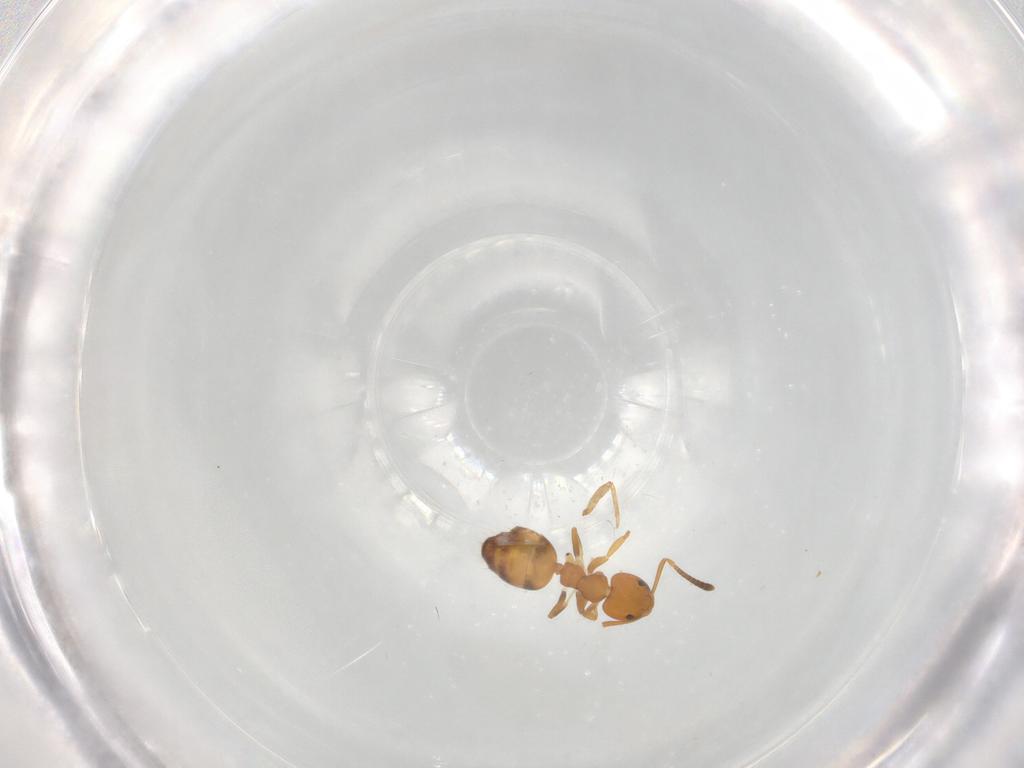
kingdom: Animalia
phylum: Arthropoda
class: Insecta
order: Hymenoptera
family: Formicidae
